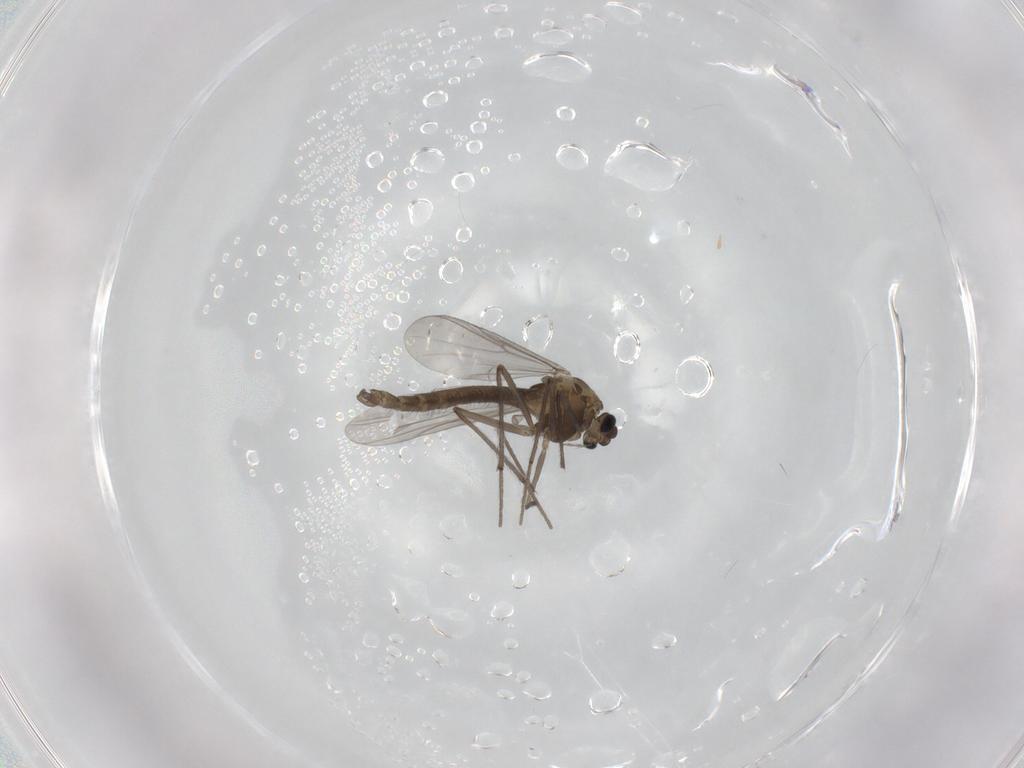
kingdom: Animalia
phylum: Arthropoda
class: Insecta
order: Diptera
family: Chironomidae
